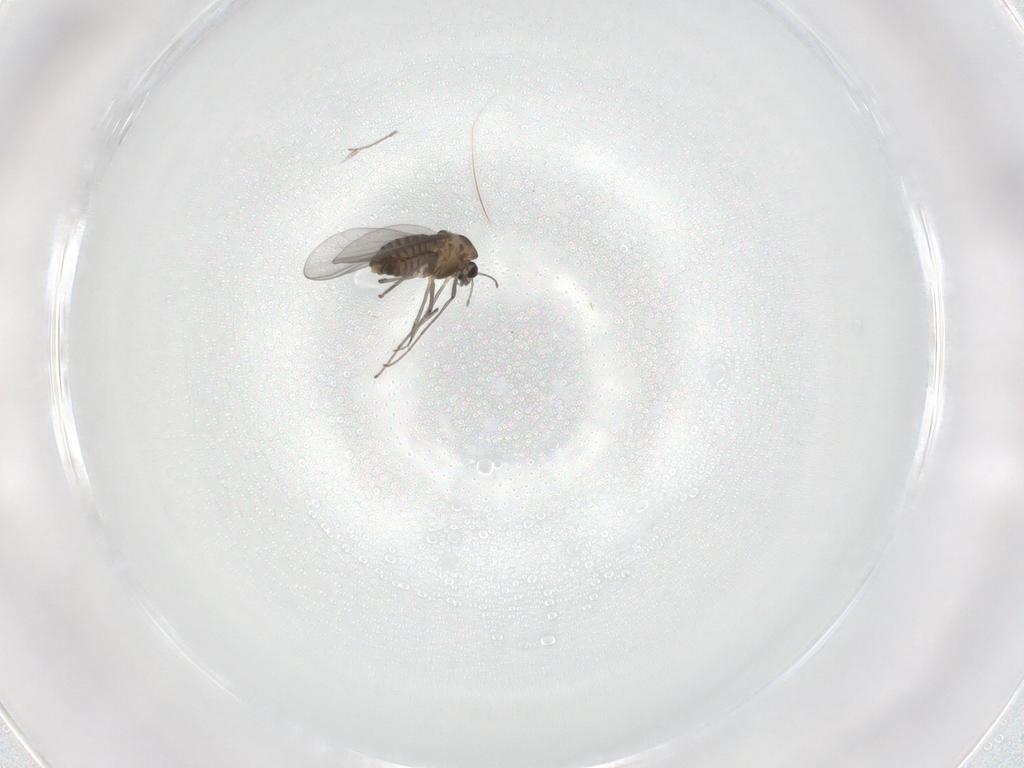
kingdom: Animalia
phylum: Arthropoda
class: Insecta
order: Diptera
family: Chironomidae
